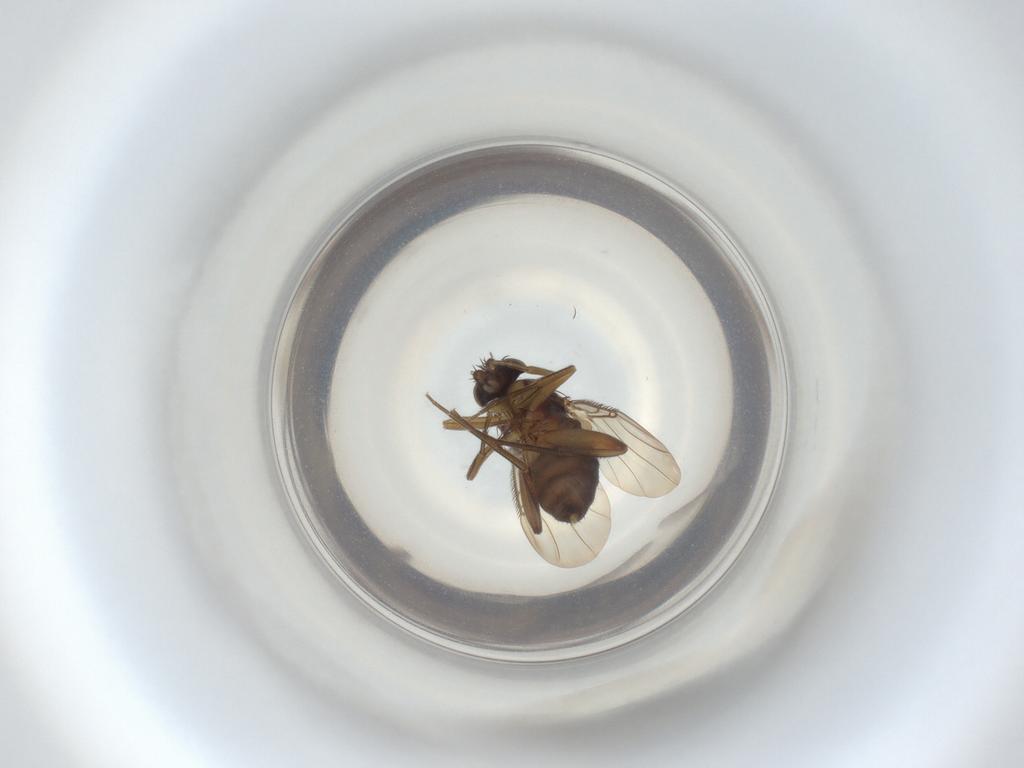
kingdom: Animalia
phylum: Arthropoda
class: Insecta
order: Diptera
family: Phoridae
